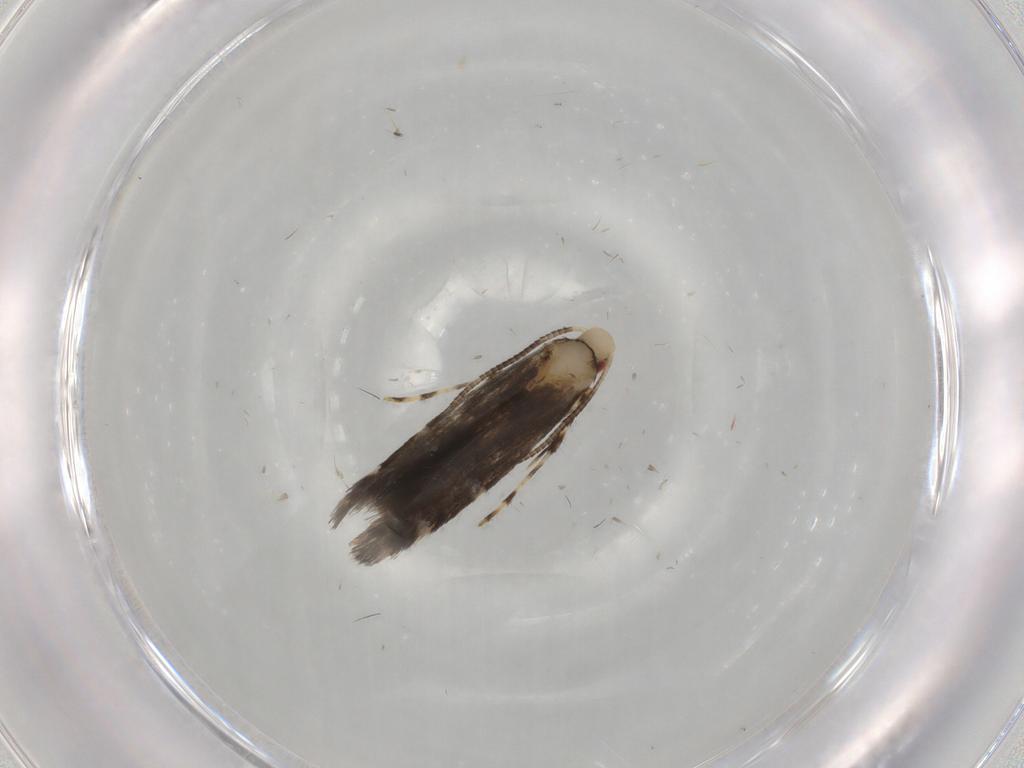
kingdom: Animalia
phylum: Arthropoda
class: Insecta
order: Lepidoptera
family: Gracillariidae
